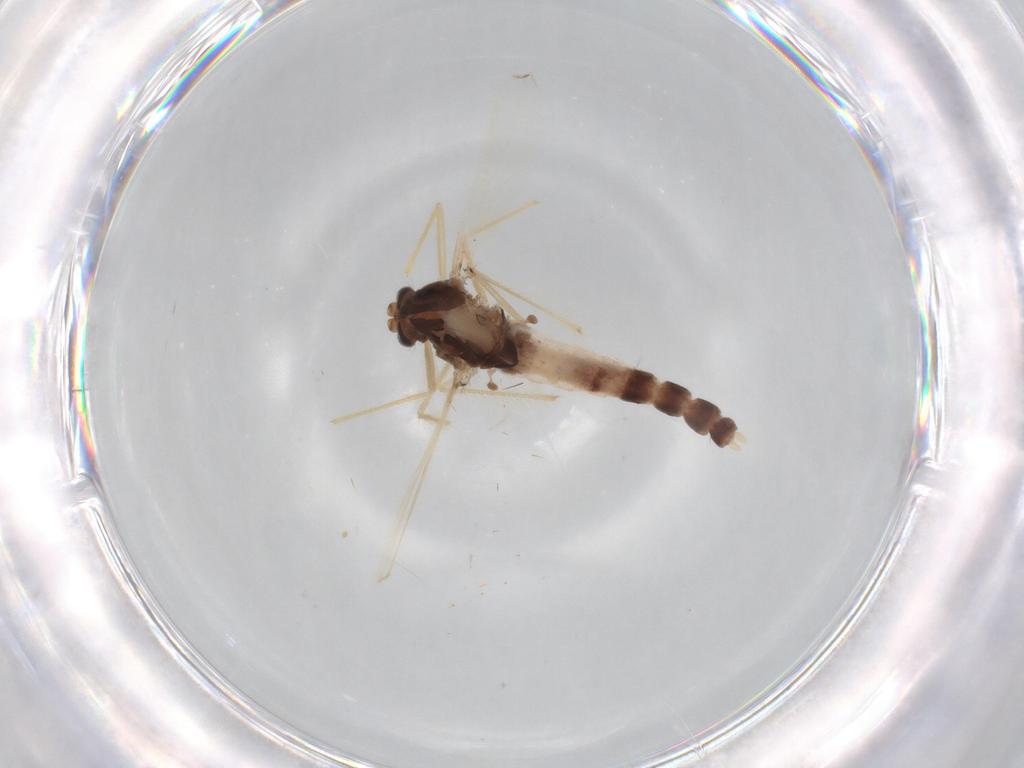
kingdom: Animalia
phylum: Arthropoda
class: Insecta
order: Diptera
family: Chironomidae
